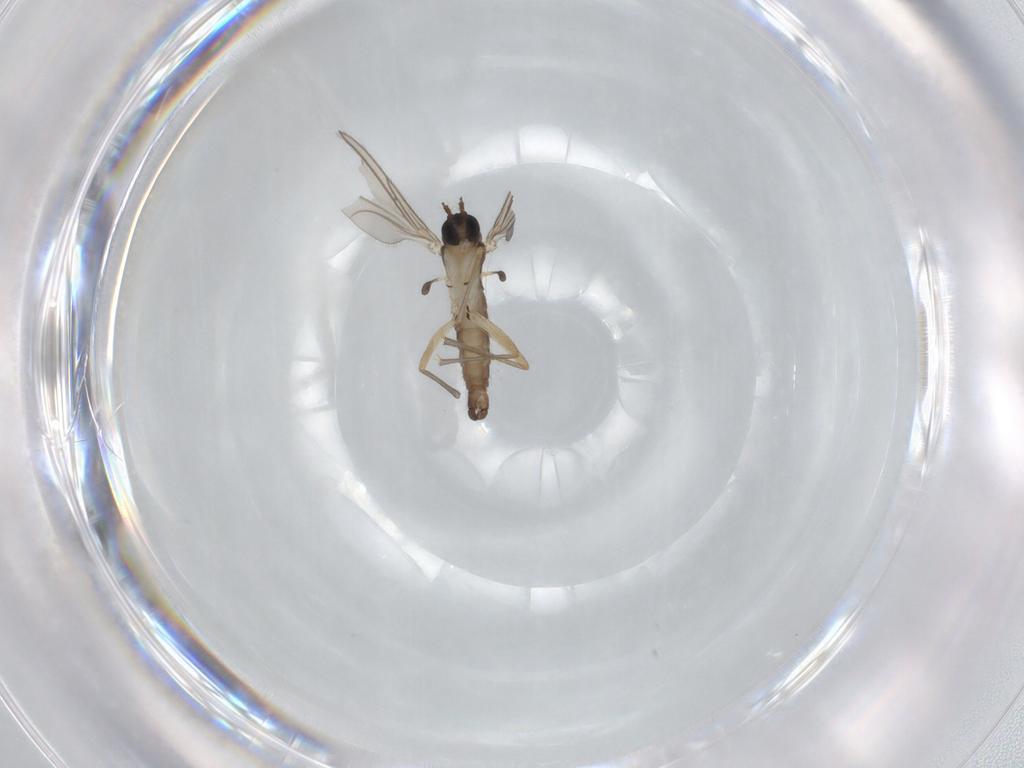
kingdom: Animalia
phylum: Arthropoda
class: Insecta
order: Diptera
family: Sciaridae
